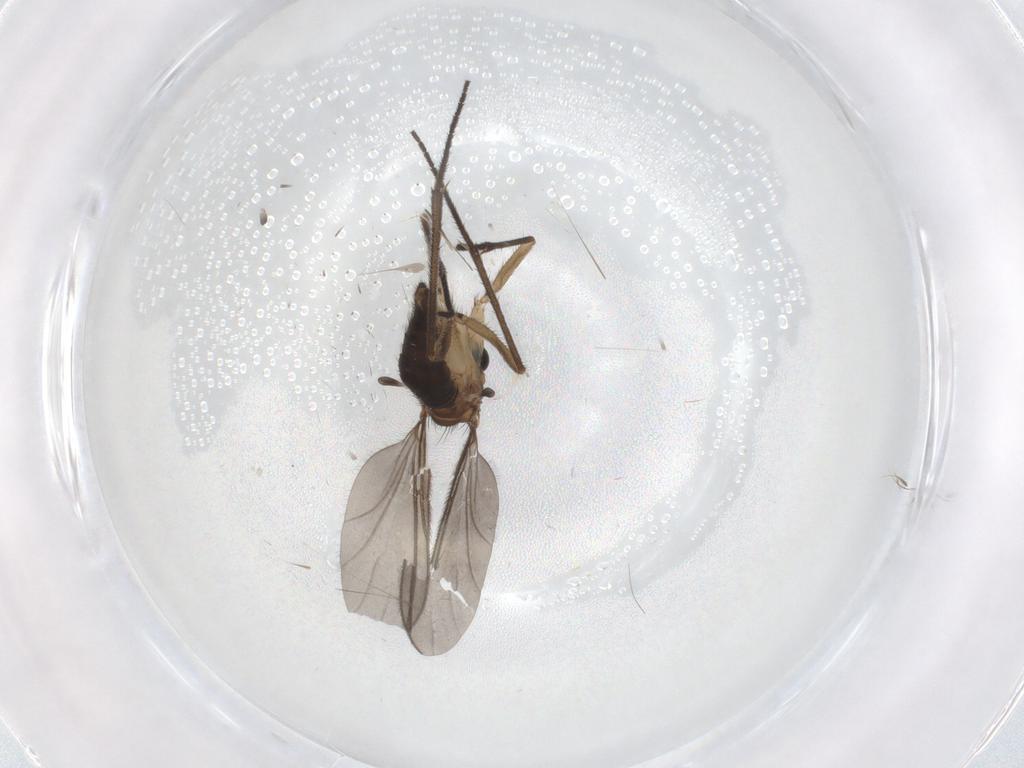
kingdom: Animalia
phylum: Arthropoda
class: Insecta
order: Diptera
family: Sciaridae
